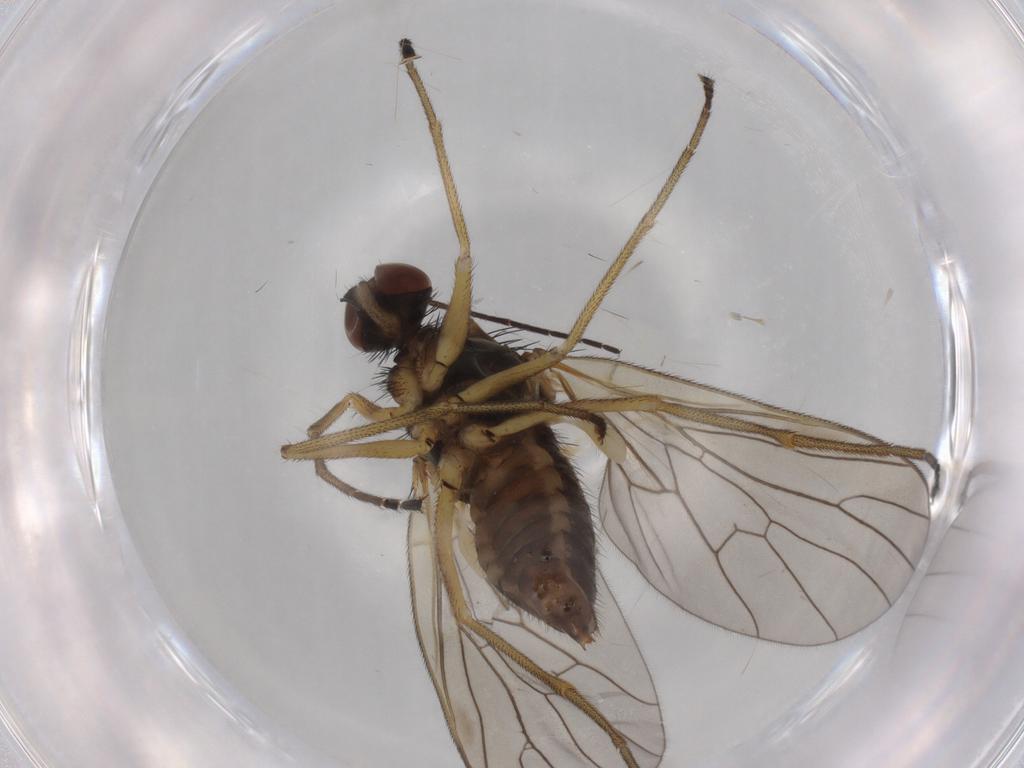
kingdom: Animalia
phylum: Arthropoda
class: Insecta
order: Diptera
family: Brachystomatidae
